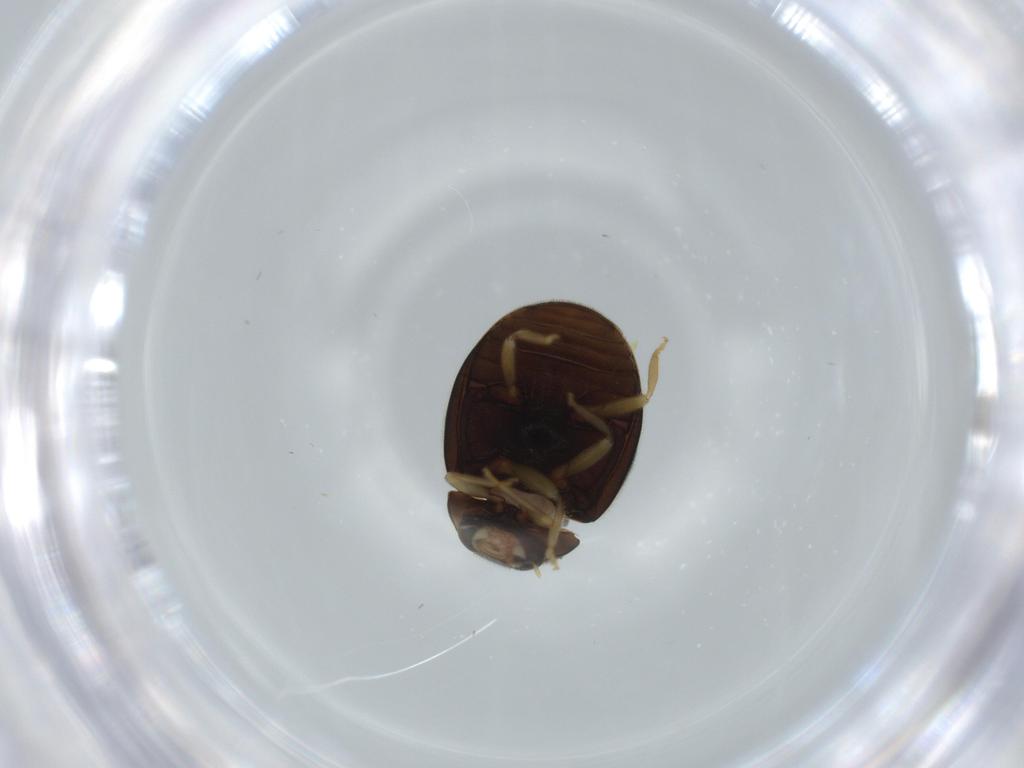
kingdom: Animalia
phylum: Arthropoda
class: Insecta
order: Coleoptera
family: Coccinellidae
